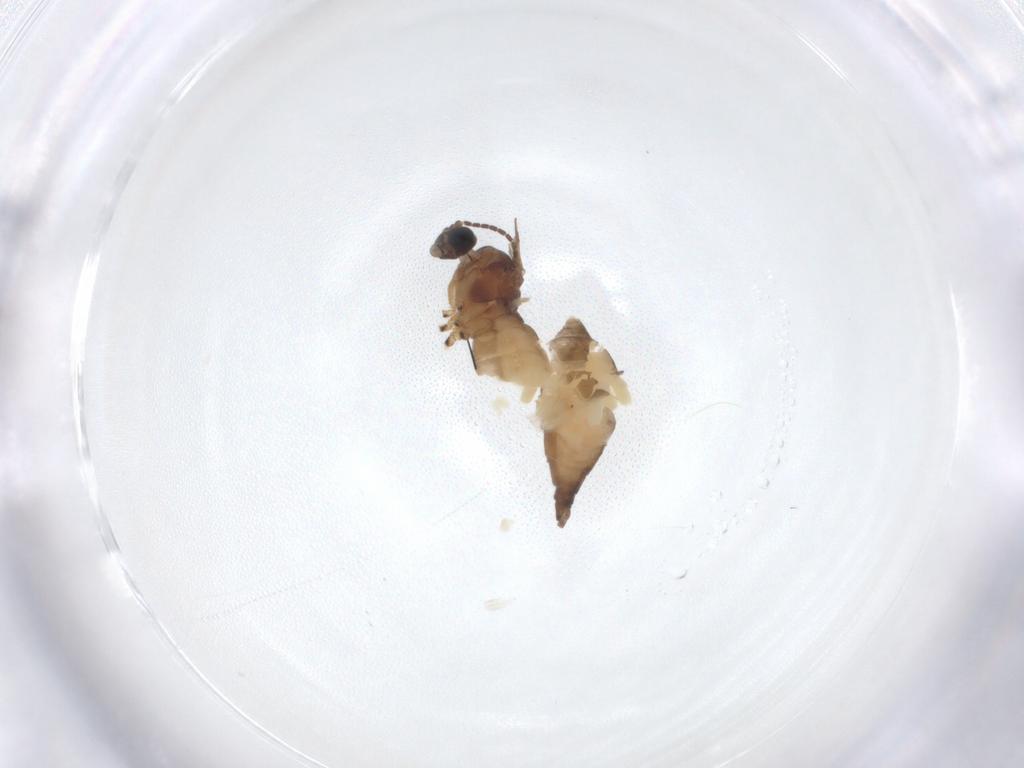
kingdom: Animalia
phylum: Arthropoda
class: Insecta
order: Diptera
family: Sciaridae
